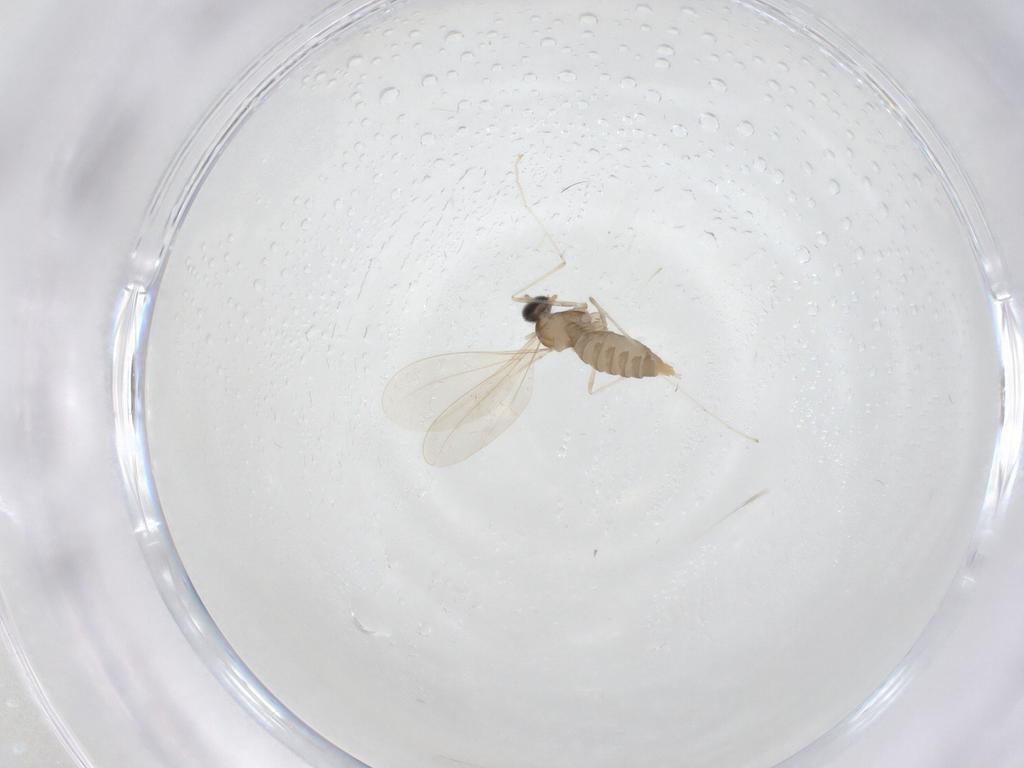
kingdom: Animalia
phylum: Arthropoda
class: Insecta
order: Diptera
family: Cecidomyiidae
